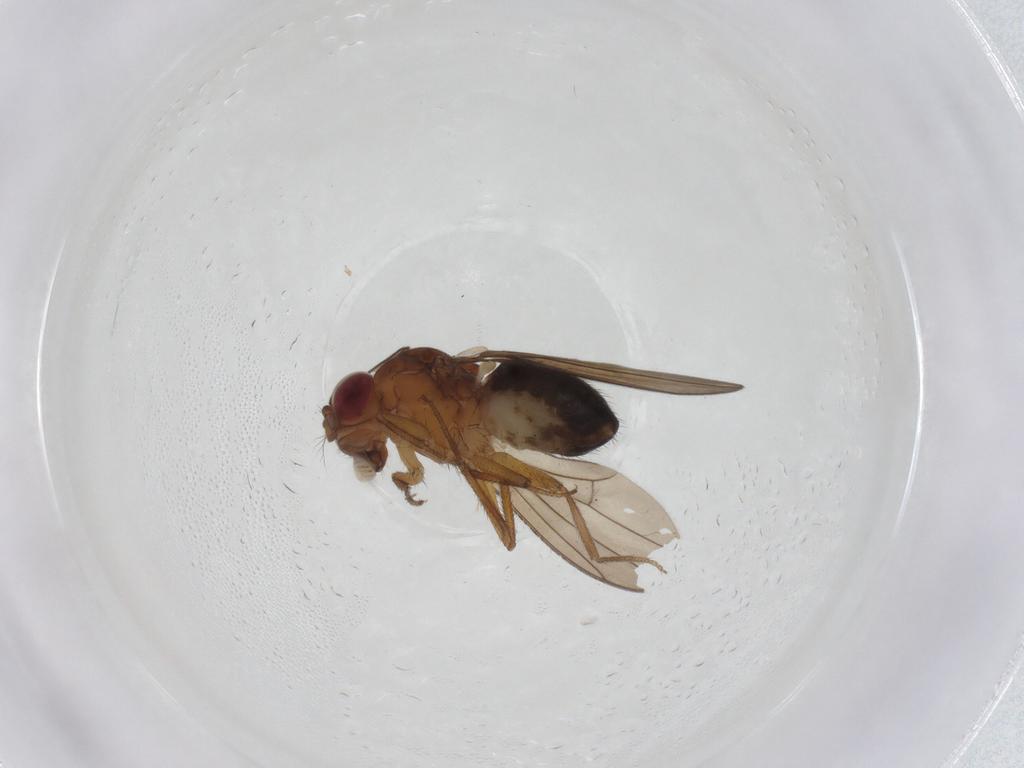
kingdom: Animalia
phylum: Arthropoda
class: Insecta
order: Diptera
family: Drosophilidae
